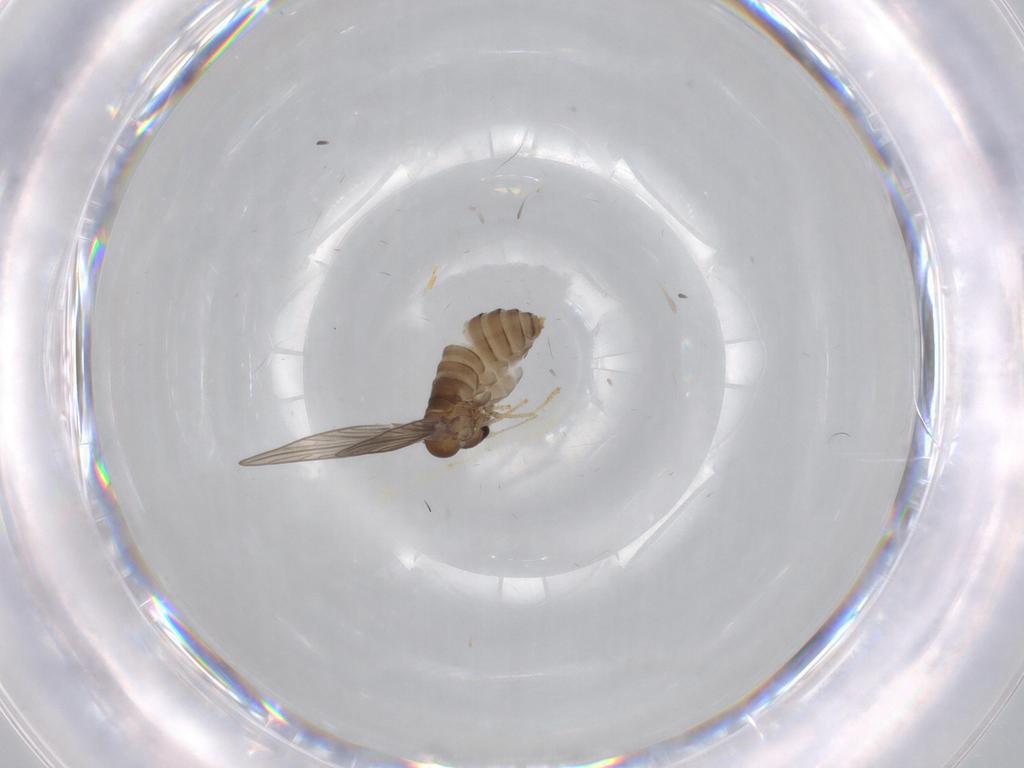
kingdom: Animalia
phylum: Arthropoda
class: Insecta
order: Diptera
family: Psychodidae
